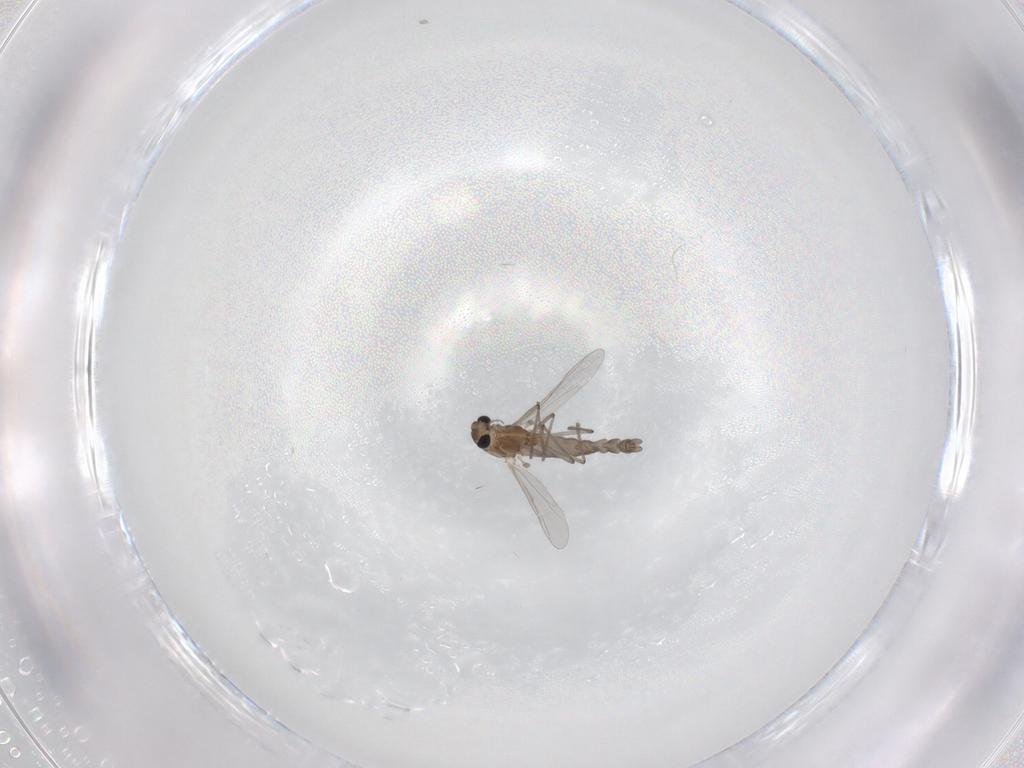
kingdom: Animalia
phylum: Arthropoda
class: Insecta
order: Diptera
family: Chironomidae
